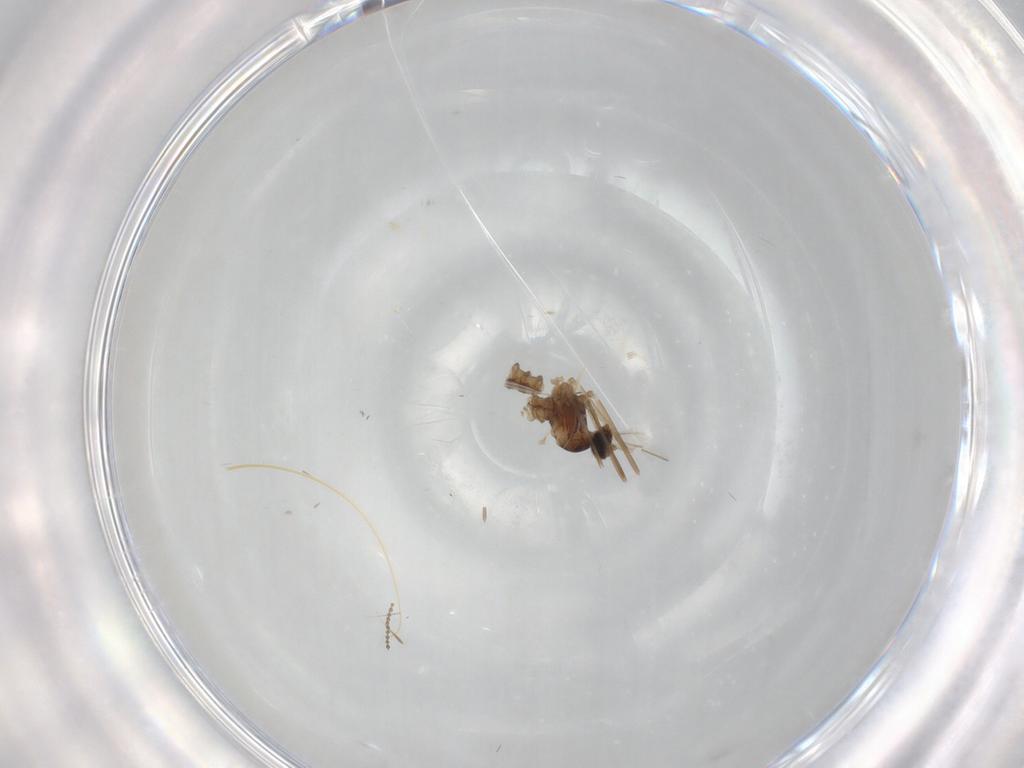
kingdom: Animalia
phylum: Arthropoda
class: Insecta
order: Diptera
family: Cecidomyiidae
